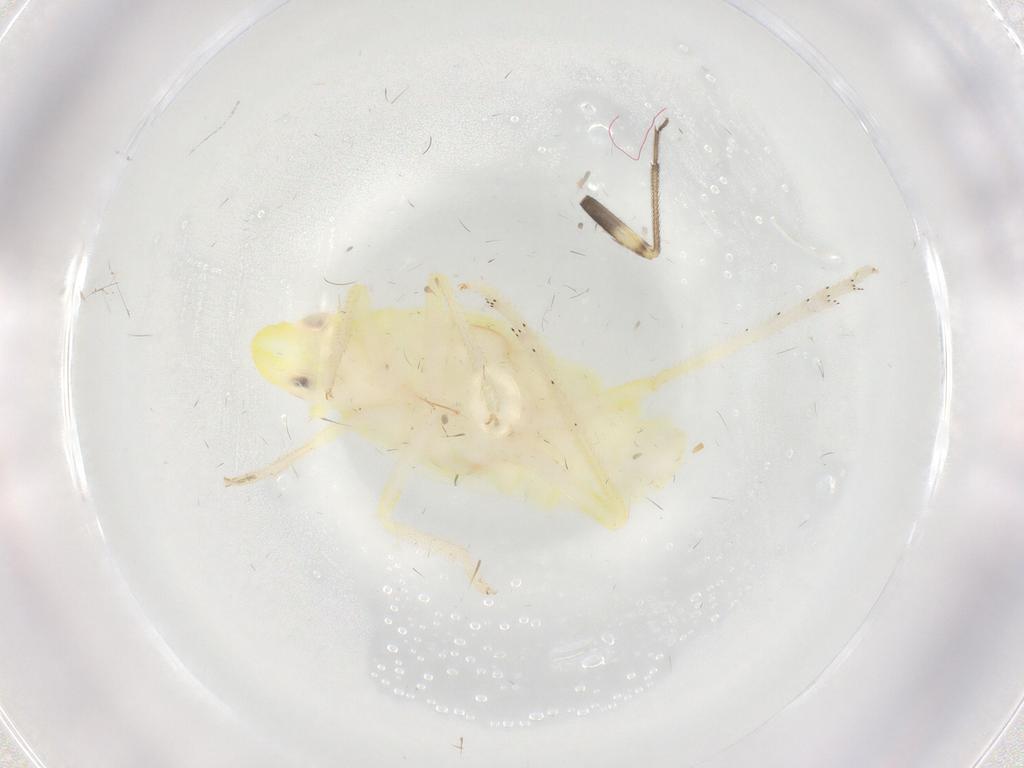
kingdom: Animalia
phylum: Arthropoda
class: Insecta
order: Hemiptera
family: Tropiduchidae
